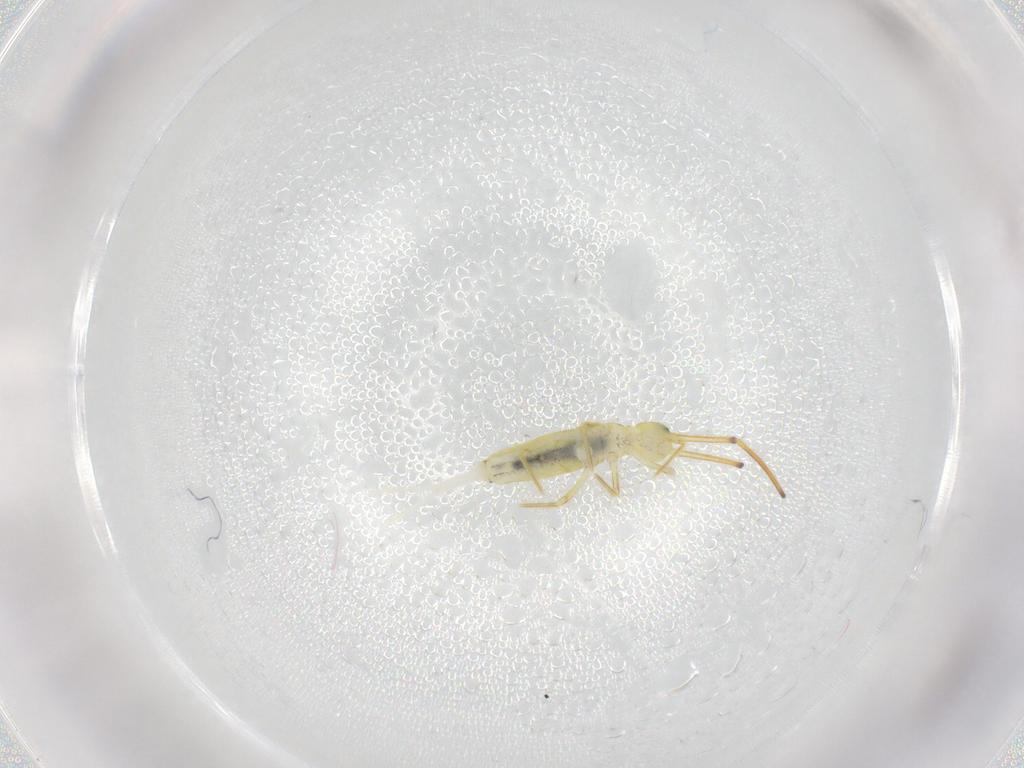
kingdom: Animalia
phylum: Arthropoda
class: Collembola
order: Entomobryomorpha
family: Entomobryidae
